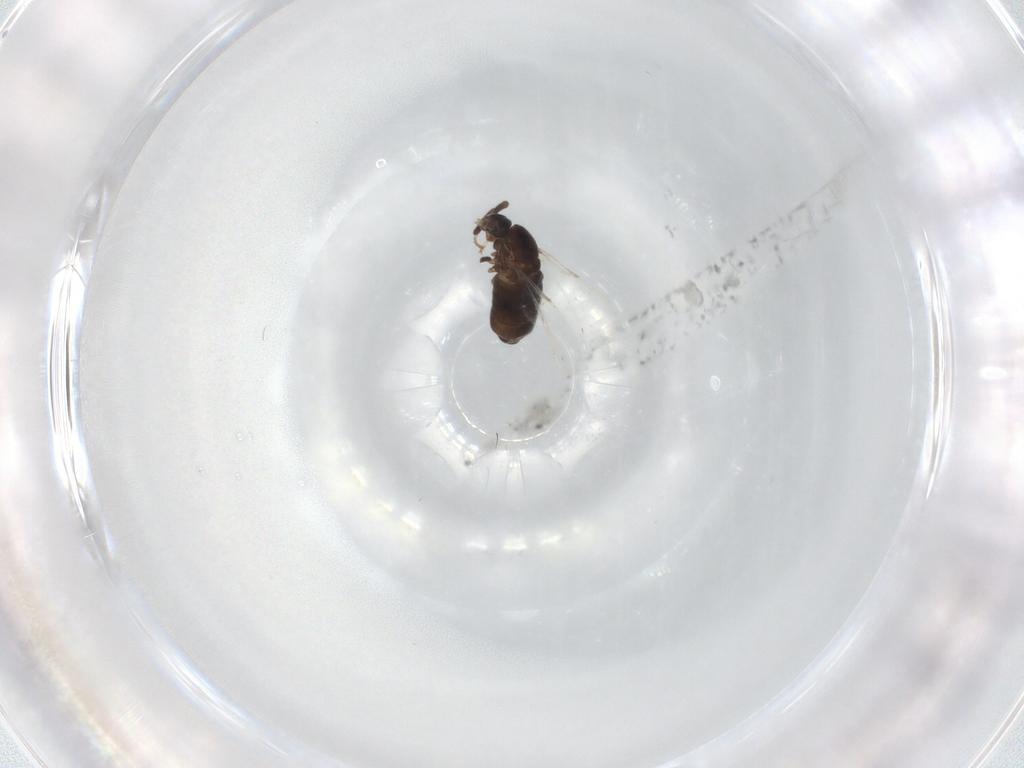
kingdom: Animalia
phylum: Arthropoda
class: Insecta
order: Diptera
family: Scatopsidae
